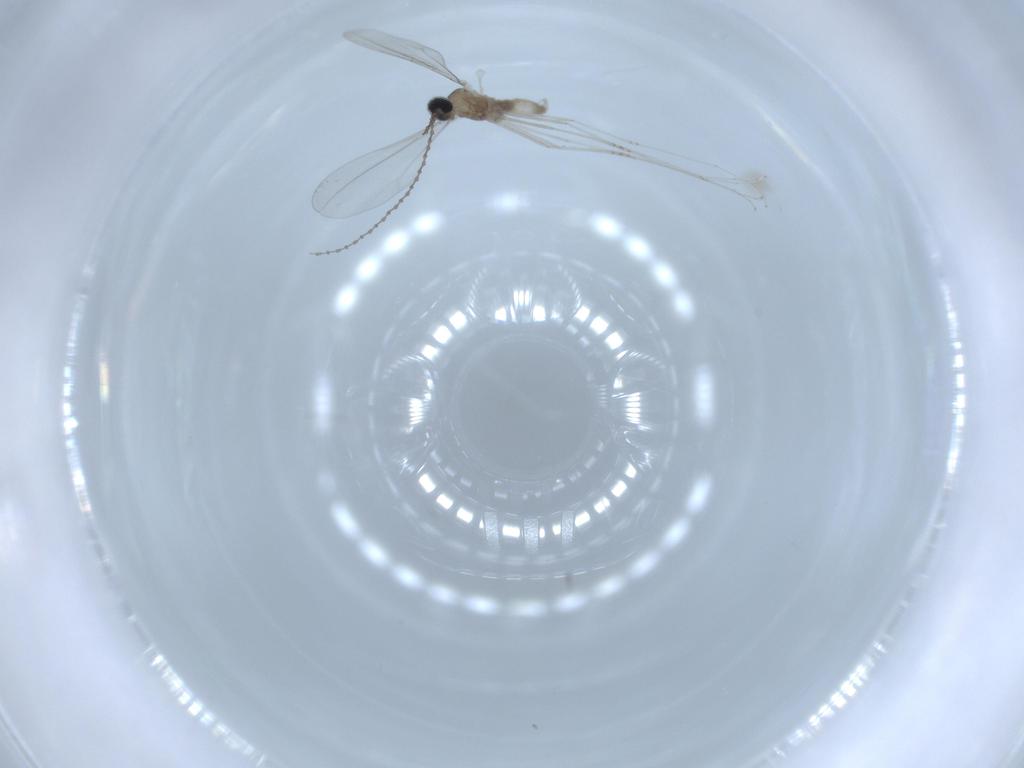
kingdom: Animalia
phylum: Arthropoda
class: Insecta
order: Diptera
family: Cecidomyiidae
